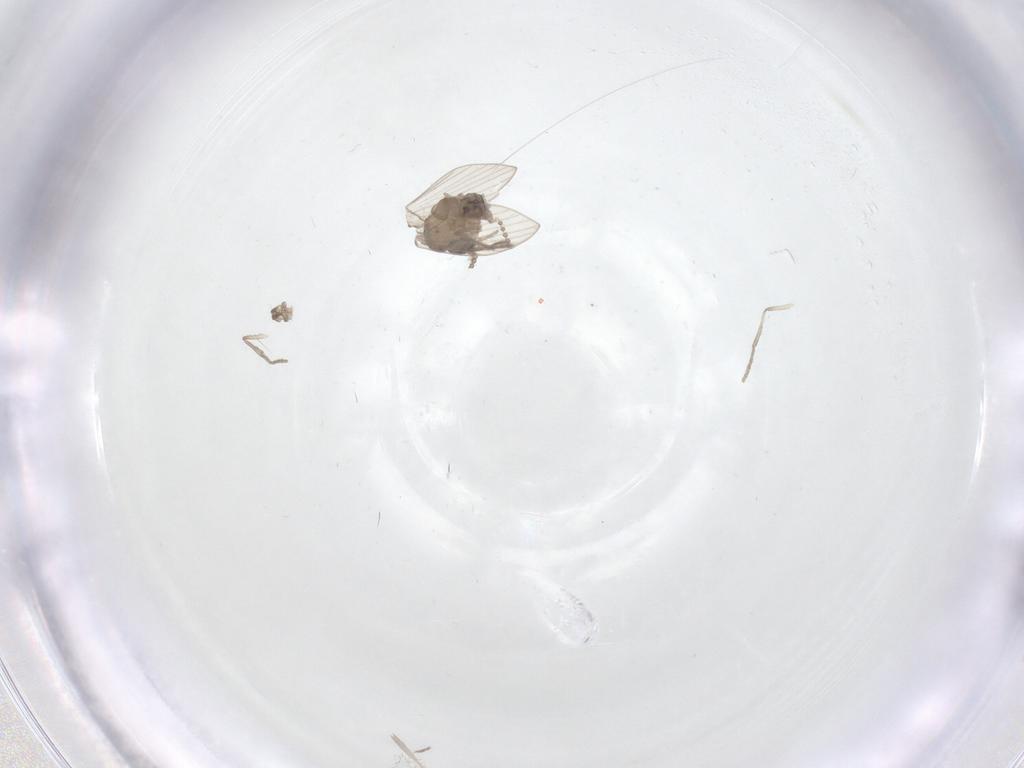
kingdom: Animalia
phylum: Arthropoda
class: Insecta
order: Diptera
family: Psychodidae
